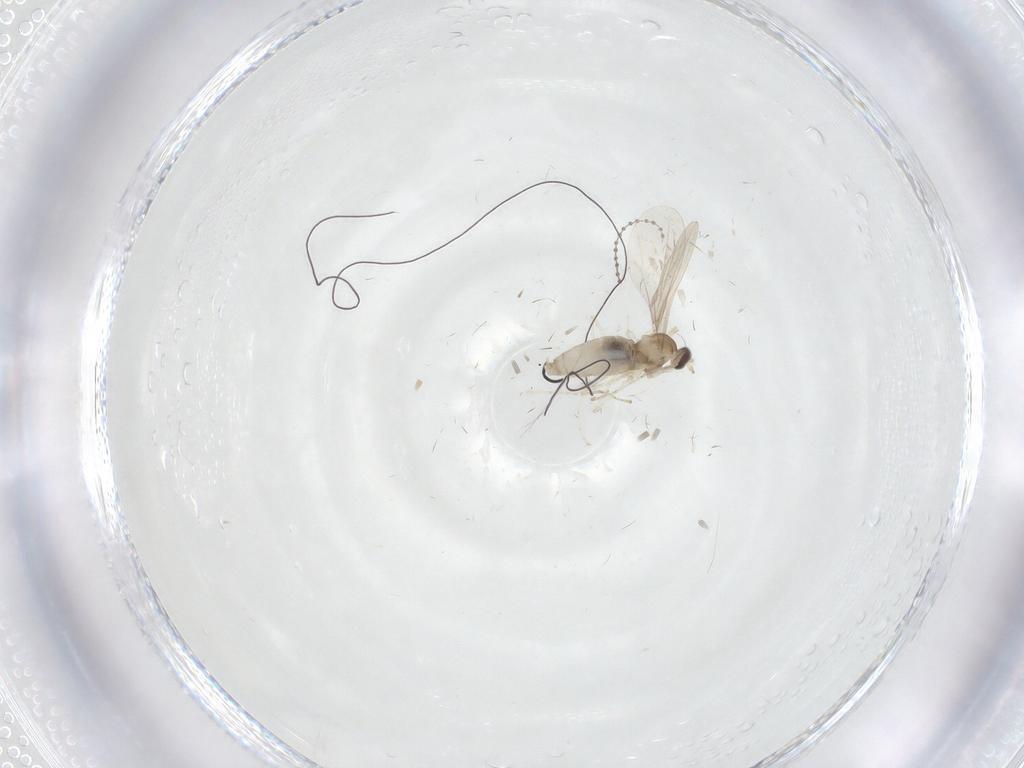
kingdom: Animalia
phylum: Arthropoda
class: Insecta
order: Diptera
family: Cecidomyiidae
